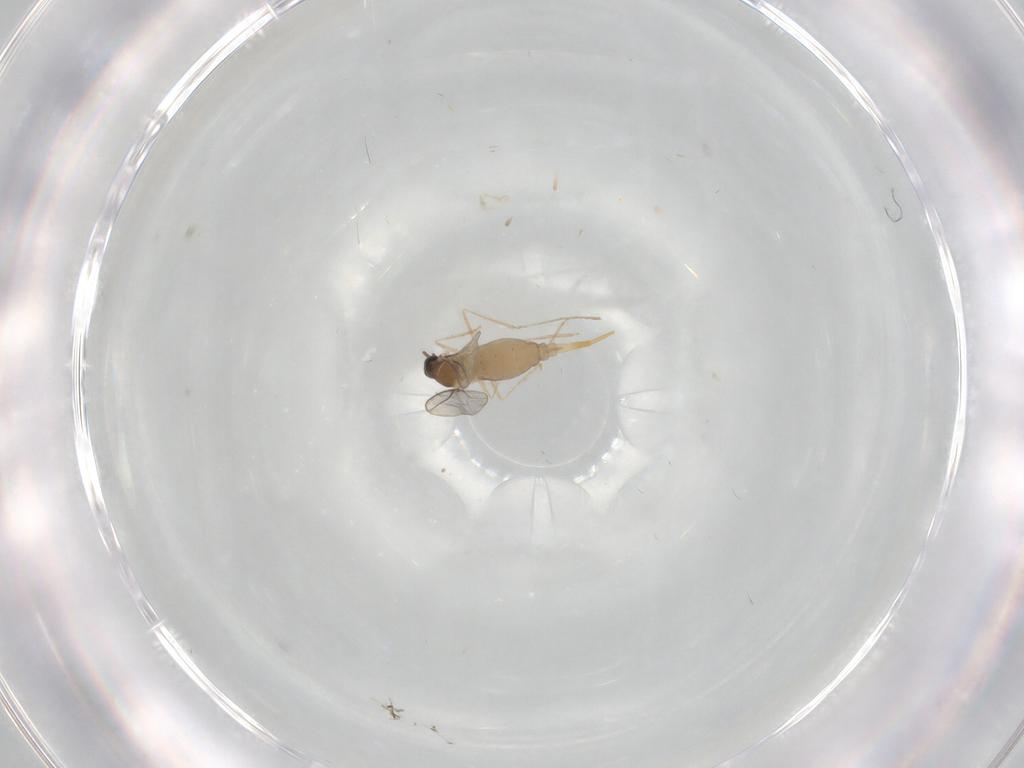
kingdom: Animalia
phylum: Arthropoda
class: Insecta
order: Diptera
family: Cecidomyiidae
